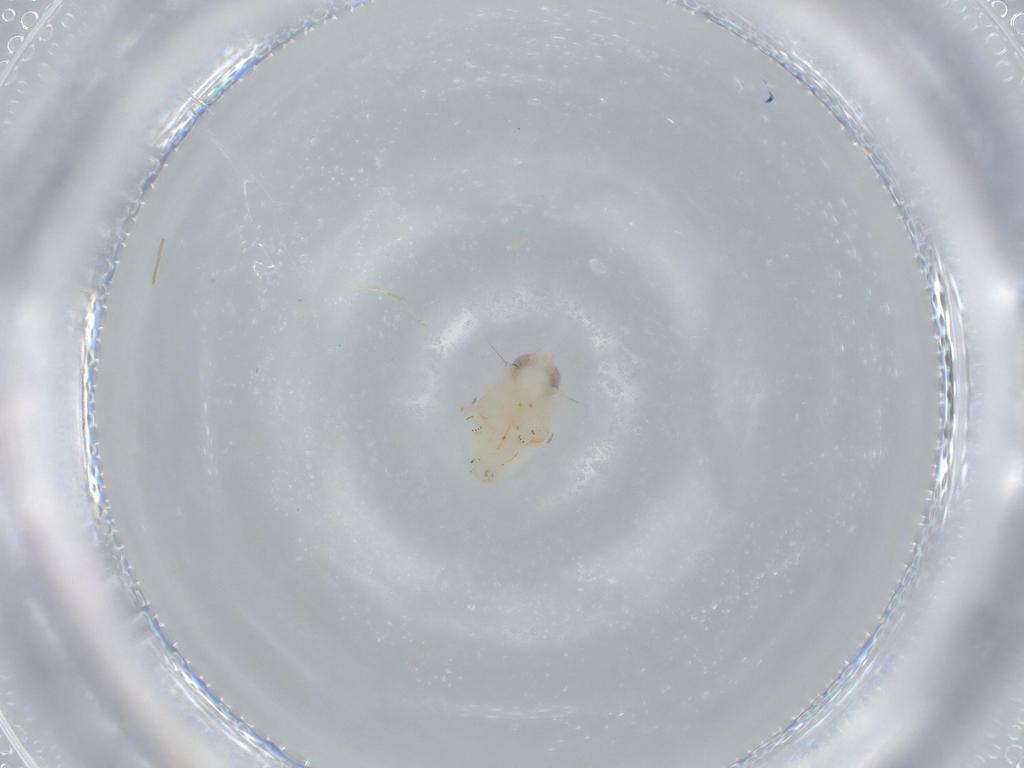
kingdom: Animalia
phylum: Arthropoda
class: Insecta
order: Hemiptera
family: Nogodinidae
